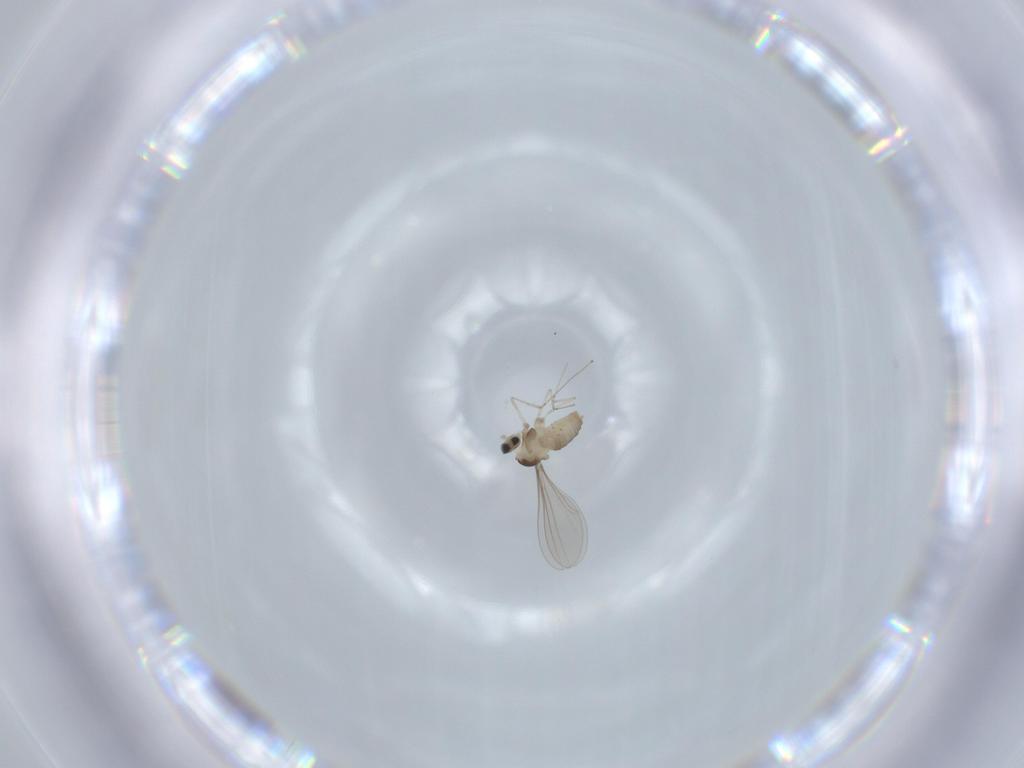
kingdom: Animalia
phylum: Arthropoda
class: Insecta
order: Diptera
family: Cecidomyiidae
